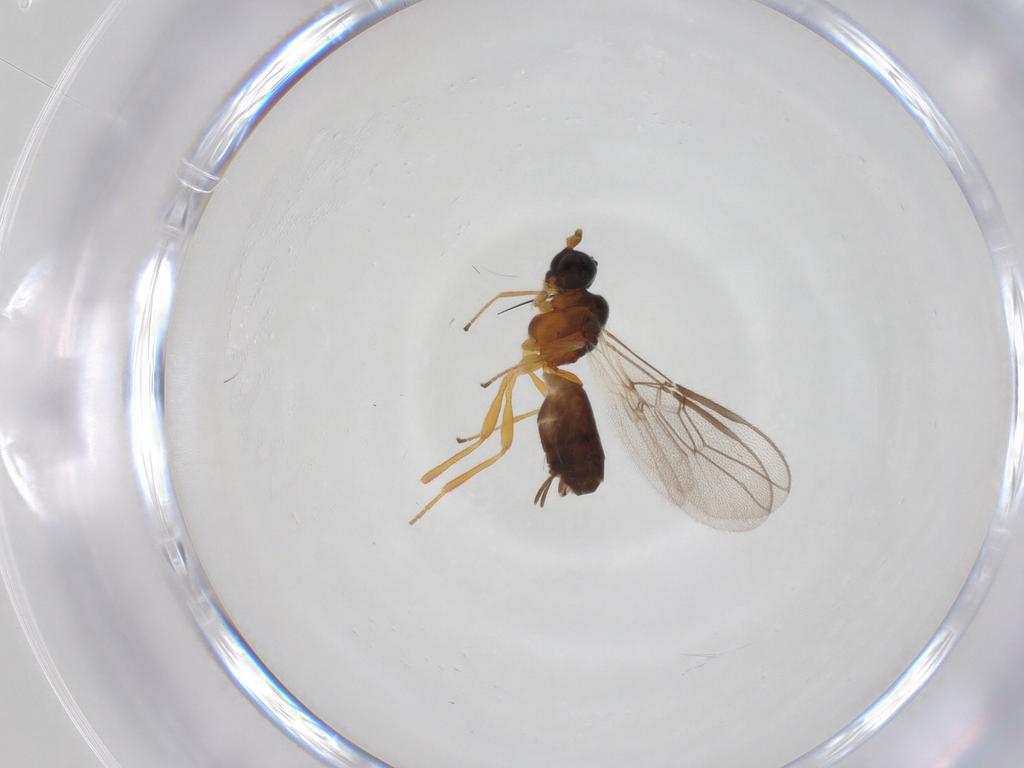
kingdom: Animalia
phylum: Arthropoda
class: Insecta
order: Hymenoptera
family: Braconidae
